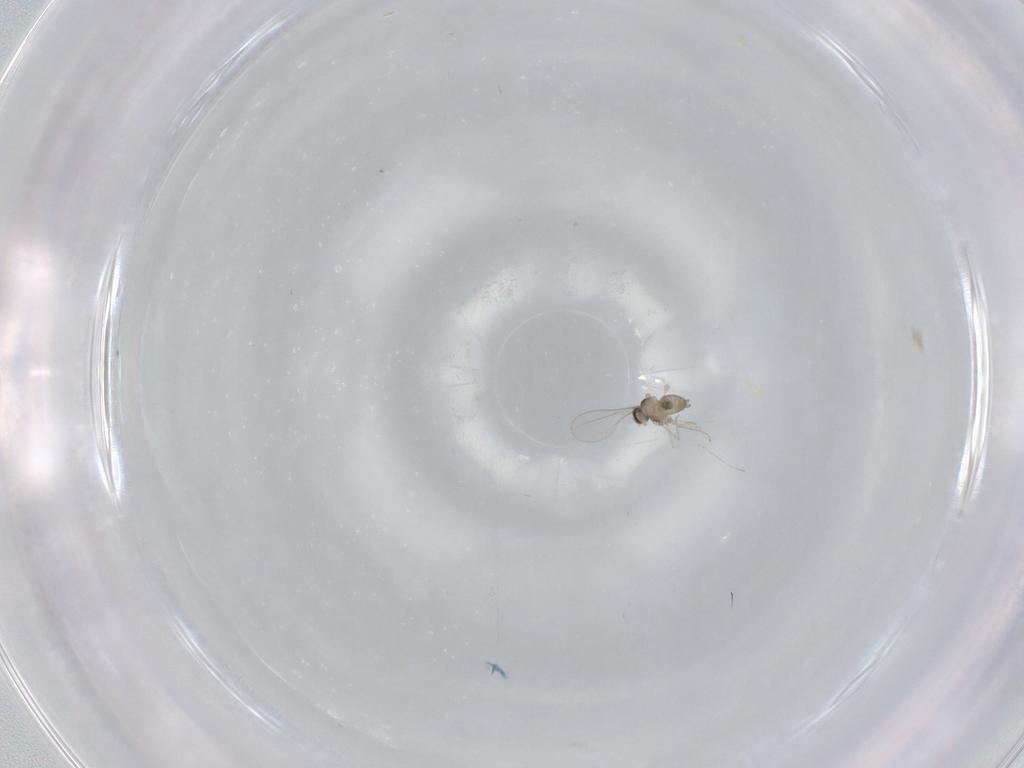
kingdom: Animalia
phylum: Arthropoda
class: Insecta
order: Diptera
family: Cecidomyiidae
